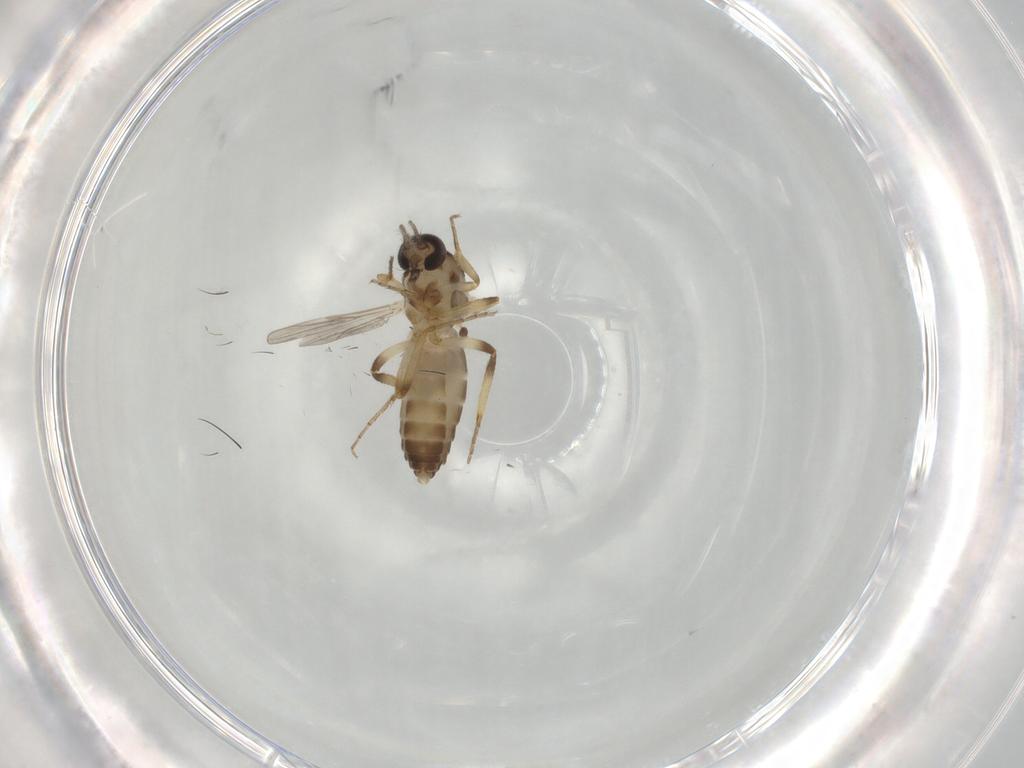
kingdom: Animalia
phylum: Arthropoda
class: Insecta
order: Diptera
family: Ceratopogonidae
